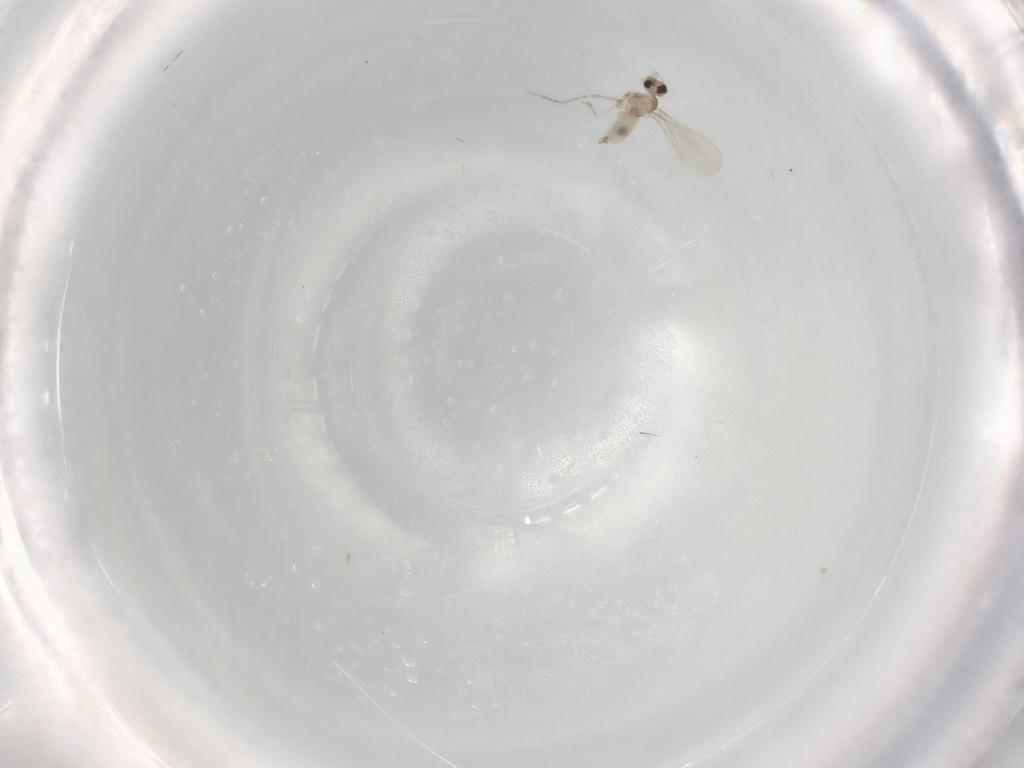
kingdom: Animalia
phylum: Arthropoda
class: Insecta
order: Diptera
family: Cecidomyiidae
